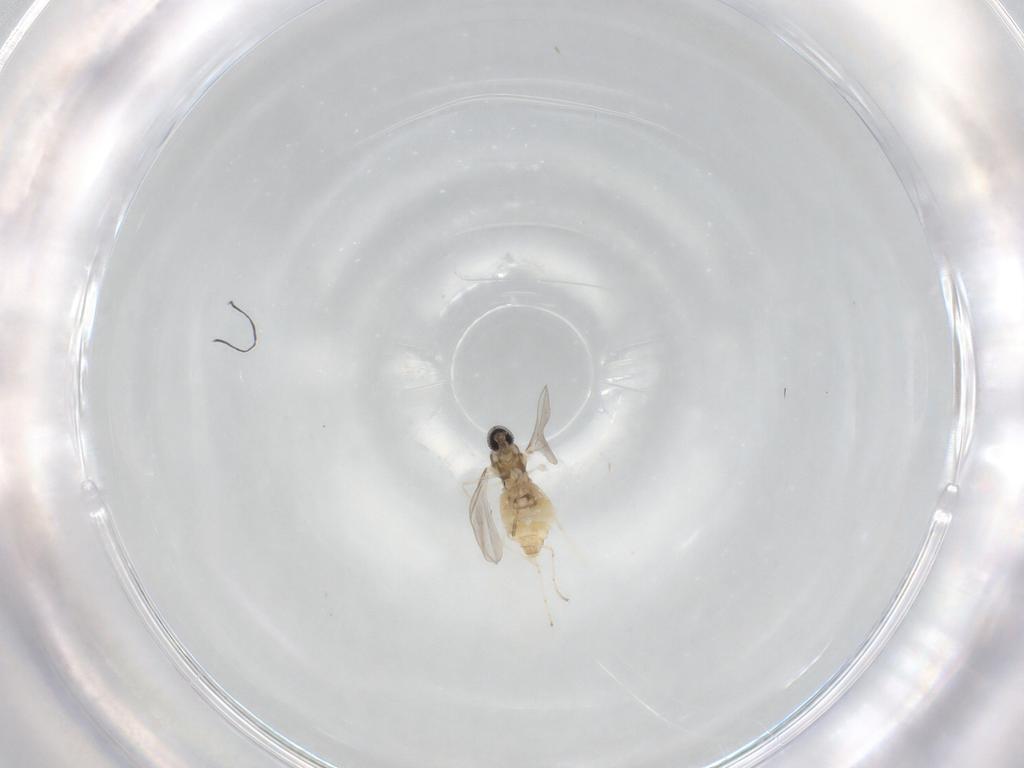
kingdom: Animalia
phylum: Arthropoda
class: Insecta
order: Diptera
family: Cecidomyiidae
